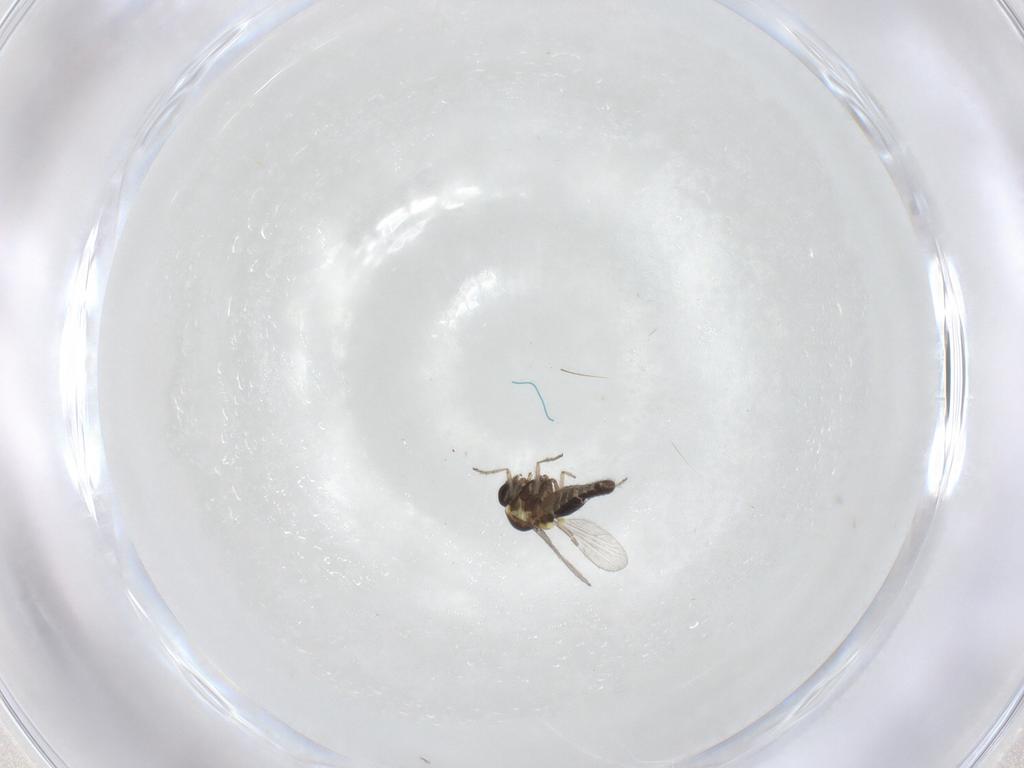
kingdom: Animalia
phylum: Arthropoda
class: Insecta
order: Diptera
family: Ceratopogonidae
